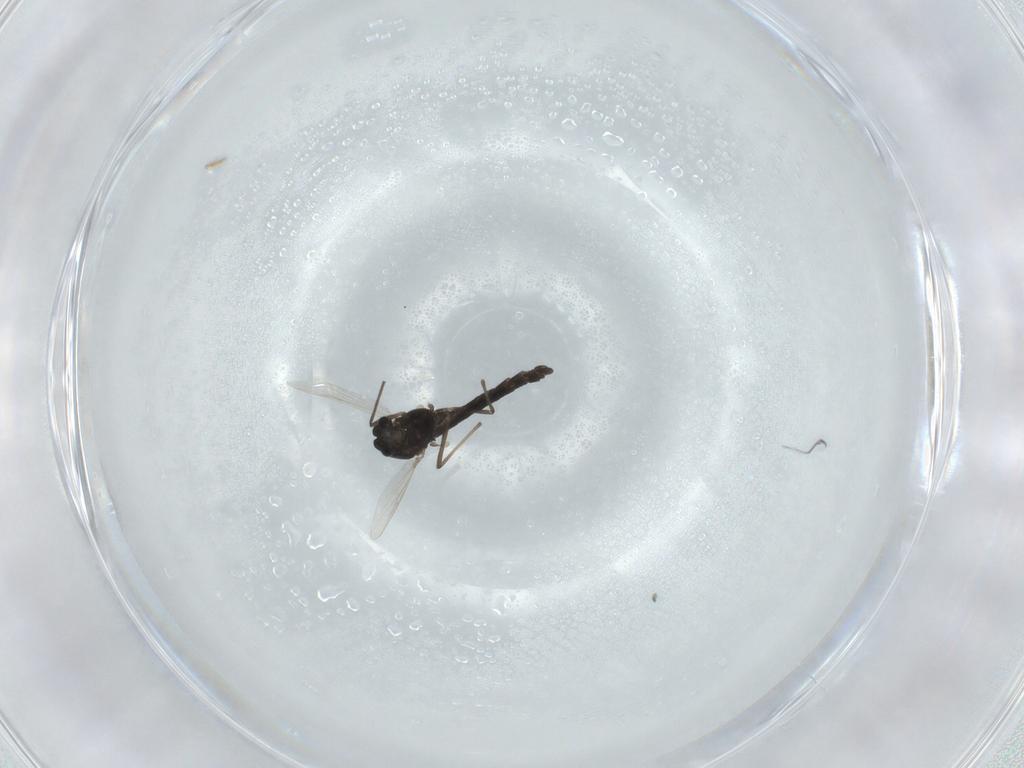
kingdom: Animalia
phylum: Arthropoda
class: Insecta
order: Diptera
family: Chironomidae
